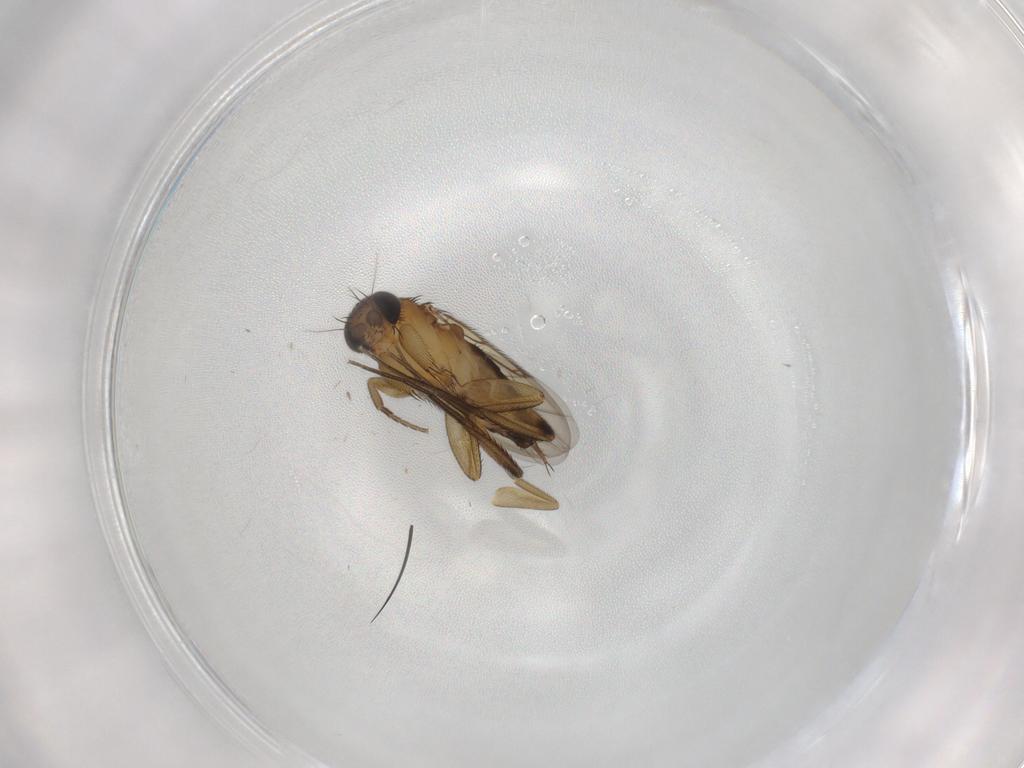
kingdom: Animalia
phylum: Arthropoda
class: Insecta
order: Diptera
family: Phoridae
